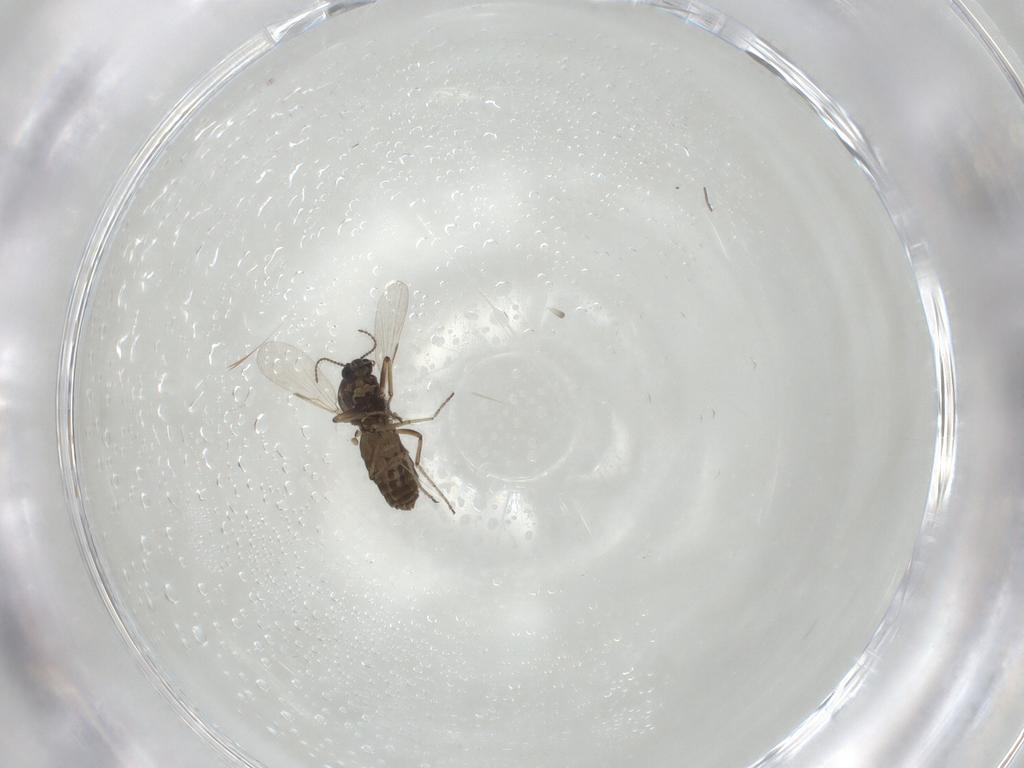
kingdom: Animalia
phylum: Arthropoda
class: Insecta
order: Diptera
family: Ceratopogonidae
